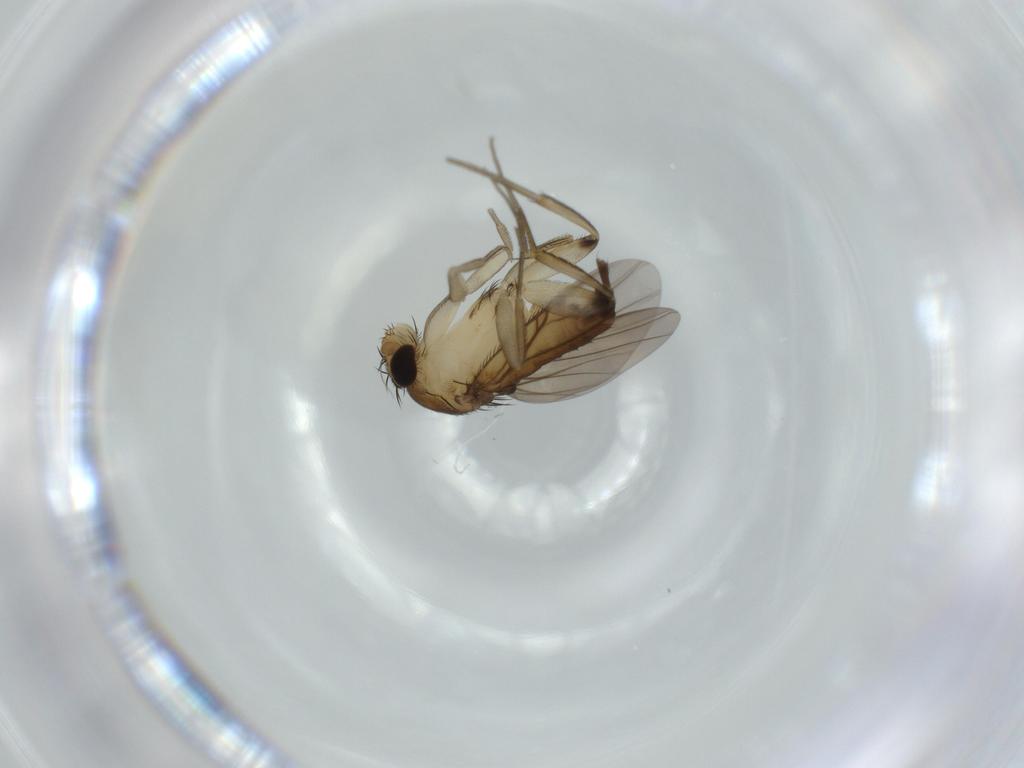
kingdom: Animalia
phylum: Arthropoda
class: Insecta
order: Diptera
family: Phoridae
